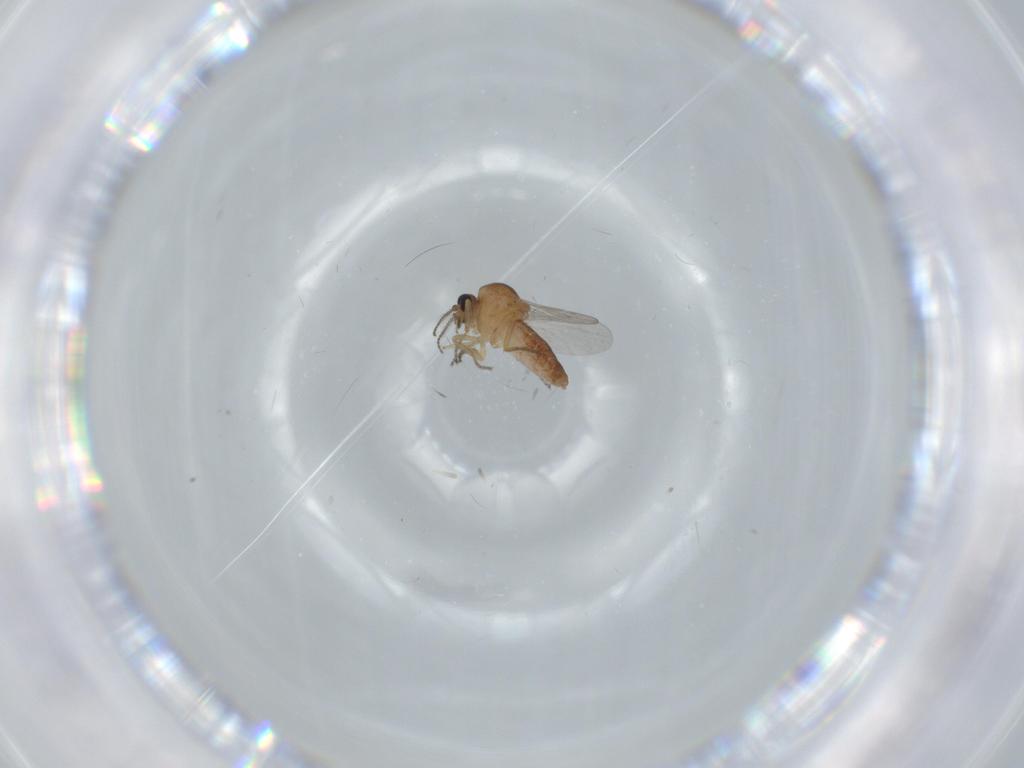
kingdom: Animalia
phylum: Arthropoda
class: Insecta
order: Diptera
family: Ceratopogonidae
